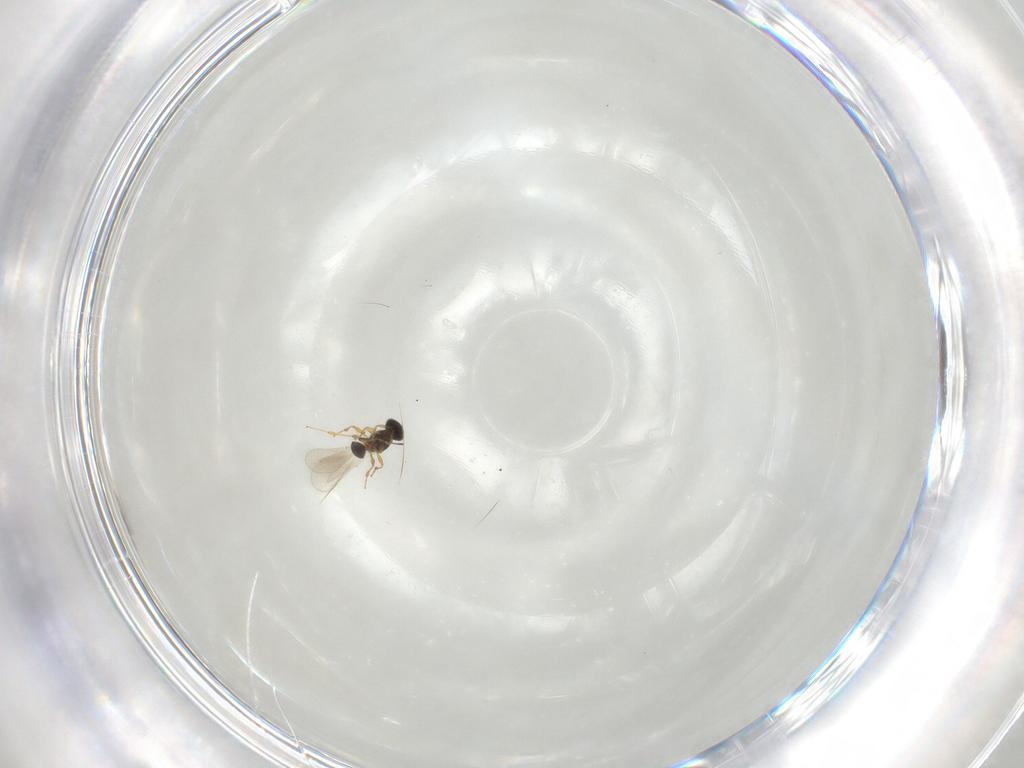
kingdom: Animalia
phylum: Arthropoda
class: Insecta
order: Hymenoptera
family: Platygastridae
